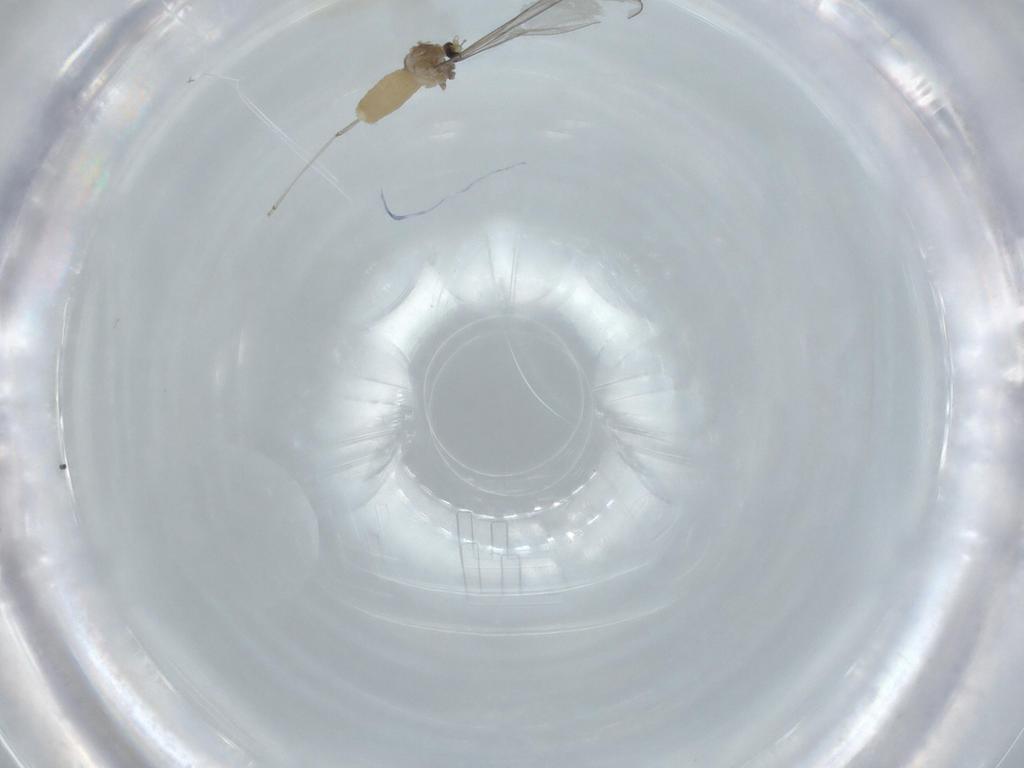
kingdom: Animalia
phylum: Arthropoda
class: Insecta
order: Diptera
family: Cecidomyiidae
